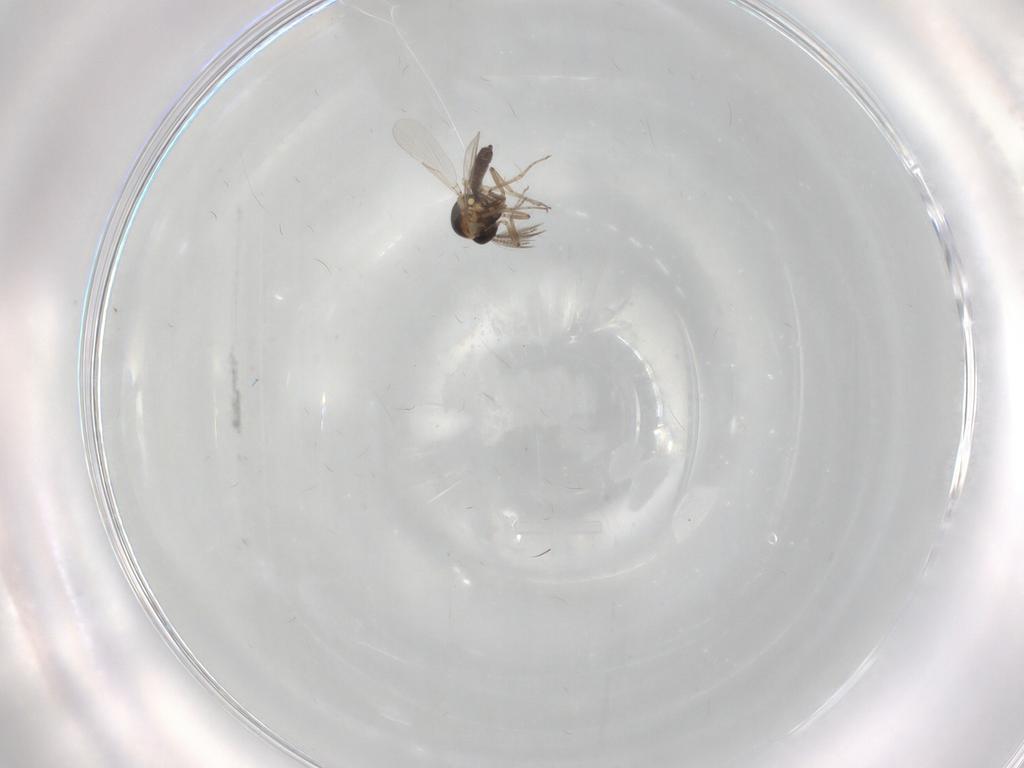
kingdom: Animalia
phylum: Arthropoda
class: Insecta
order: Diptera
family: Ceratopogonidae
